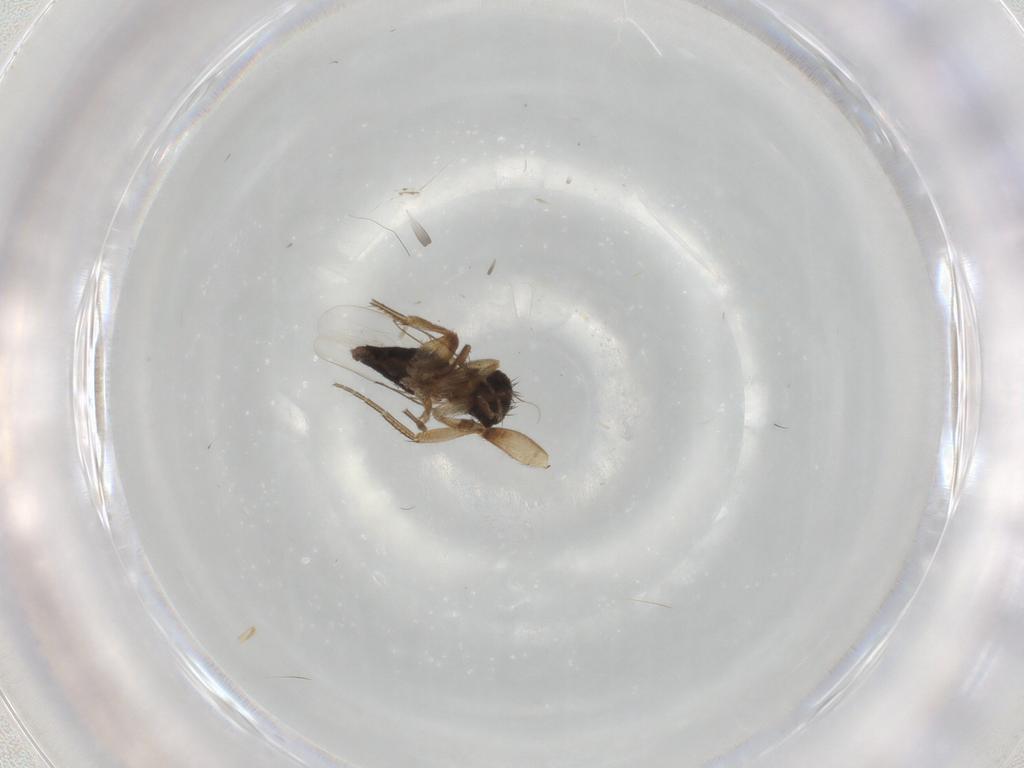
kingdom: Animalia
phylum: Arthropoda
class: Insecta
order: Diptera
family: Phoridae
